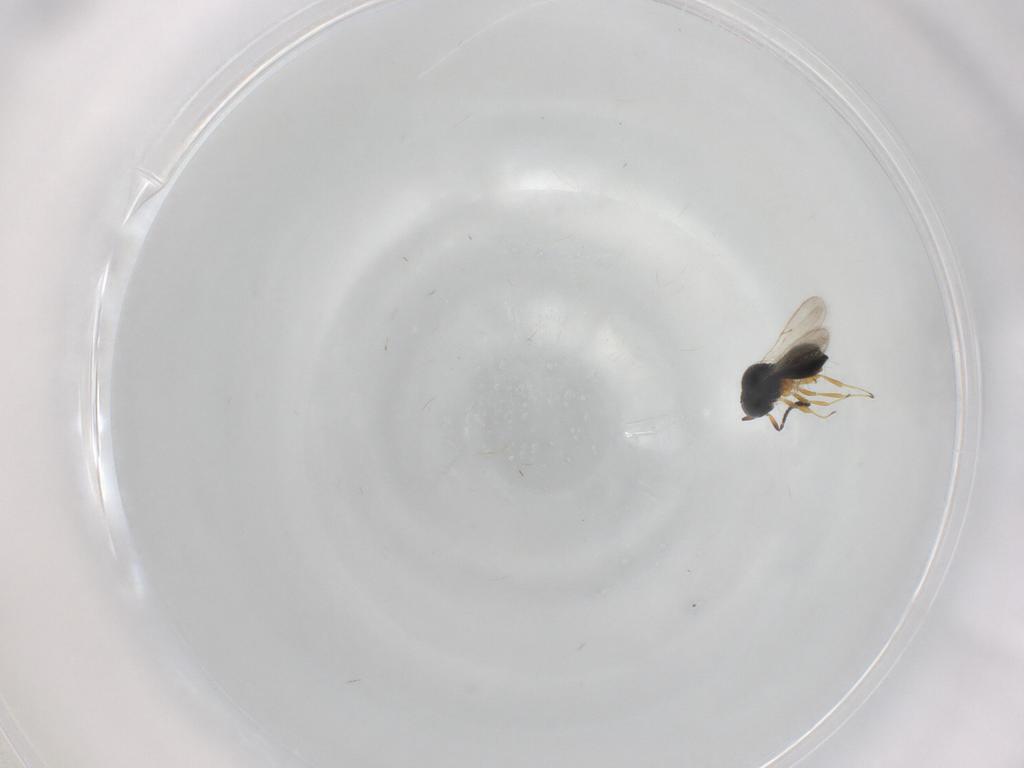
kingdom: Animalia
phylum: Arthropoda
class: Insecta
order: Hymenoptera
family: Scelionidae
